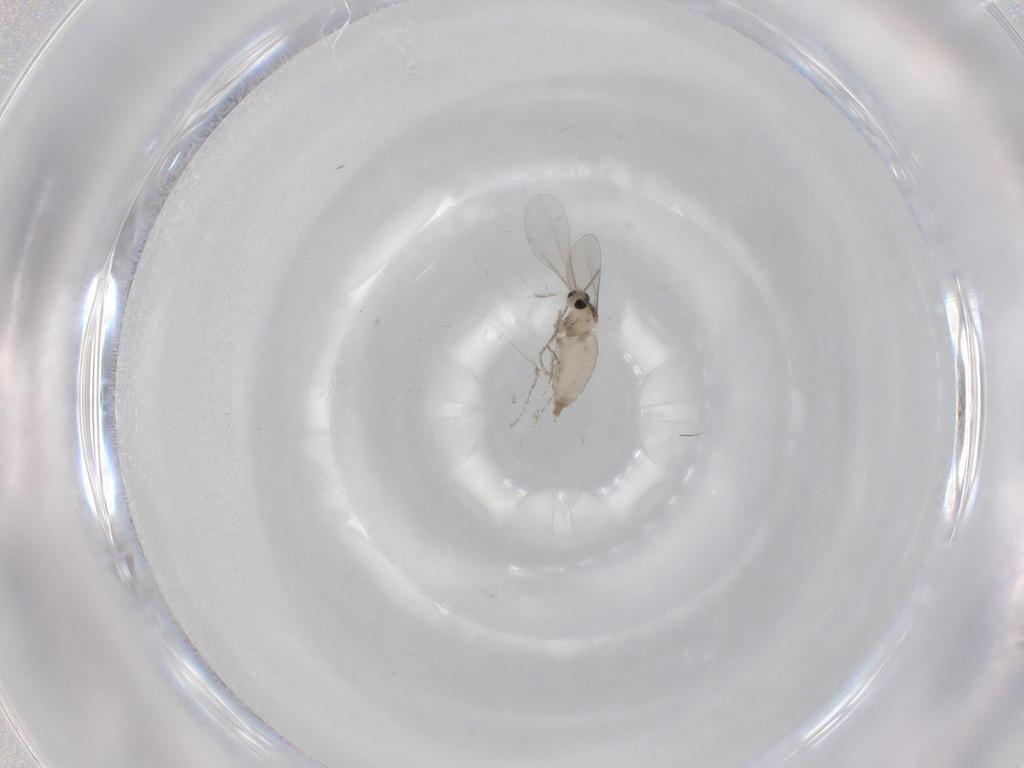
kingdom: Animalia
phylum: Arthropoda
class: Insecta
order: Diptera
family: Cecidomyiidae
